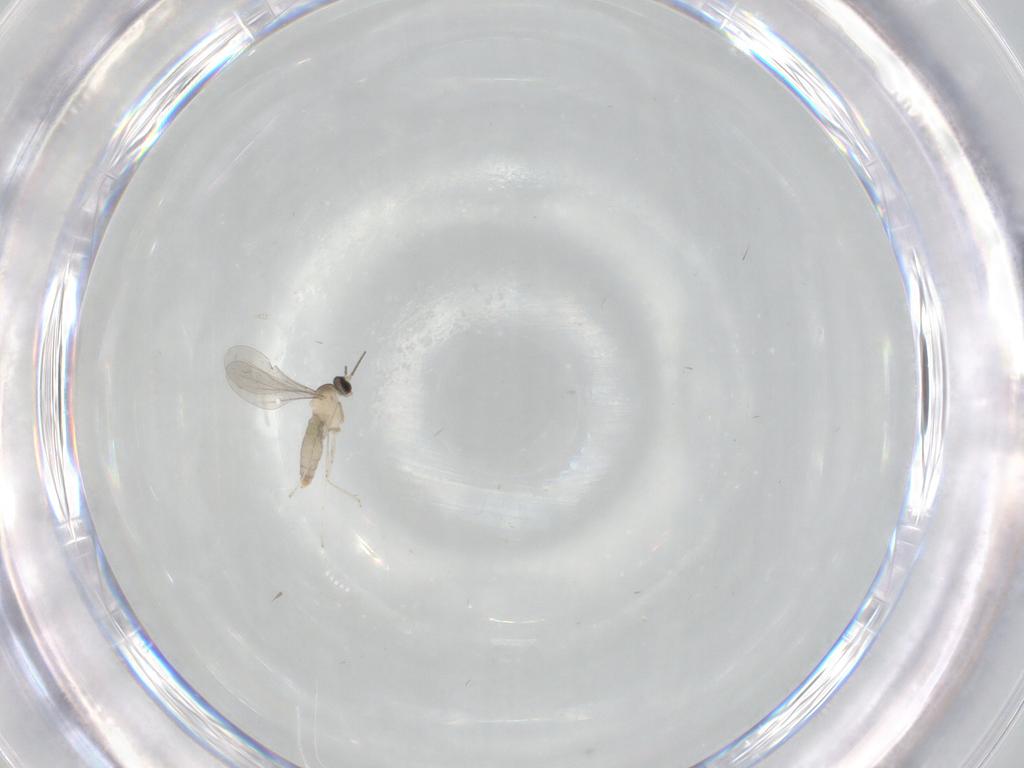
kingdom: Animalia
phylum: Arthropoda
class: Insecta
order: Diptera
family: Cecidomyiidae
